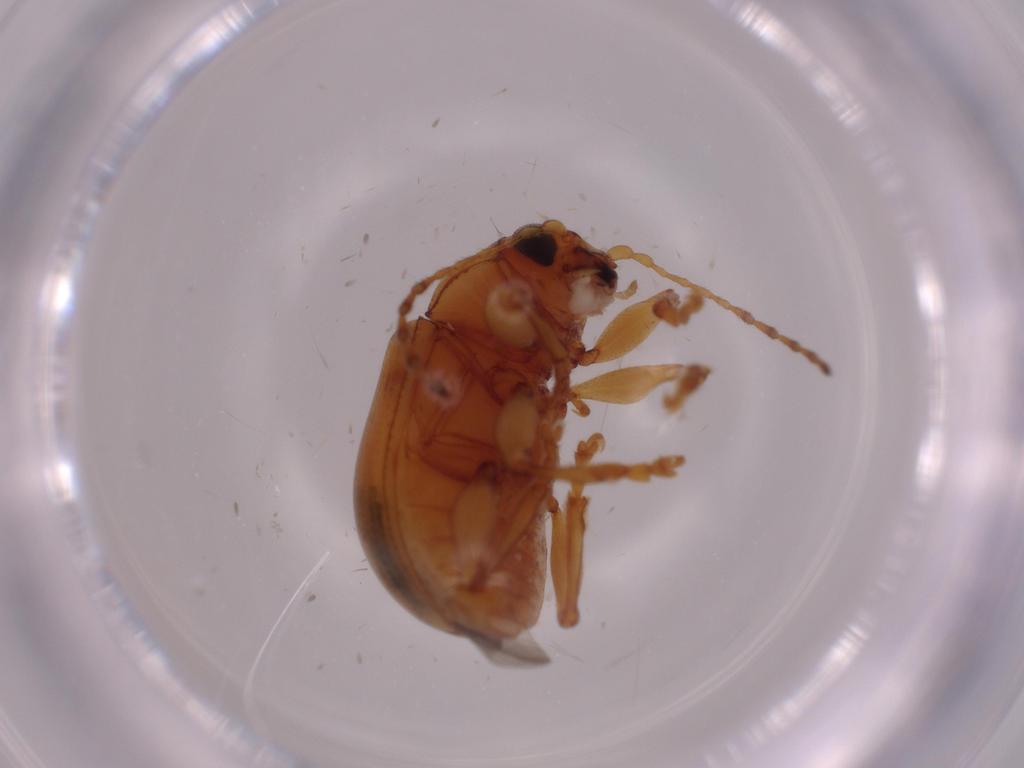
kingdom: Animalia
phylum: Arthropoda
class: Insecta
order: Coleoptera
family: Chrysomelidae
